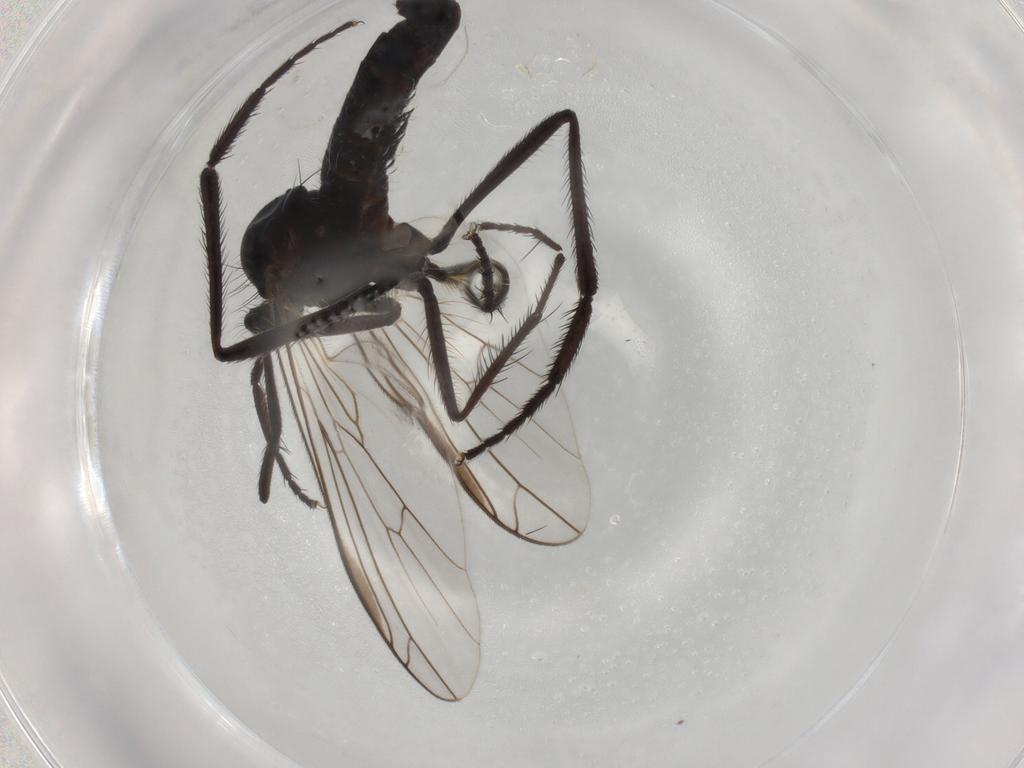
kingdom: Animalia
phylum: Arthropoda
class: Insecta
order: Diptera
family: Empididae
